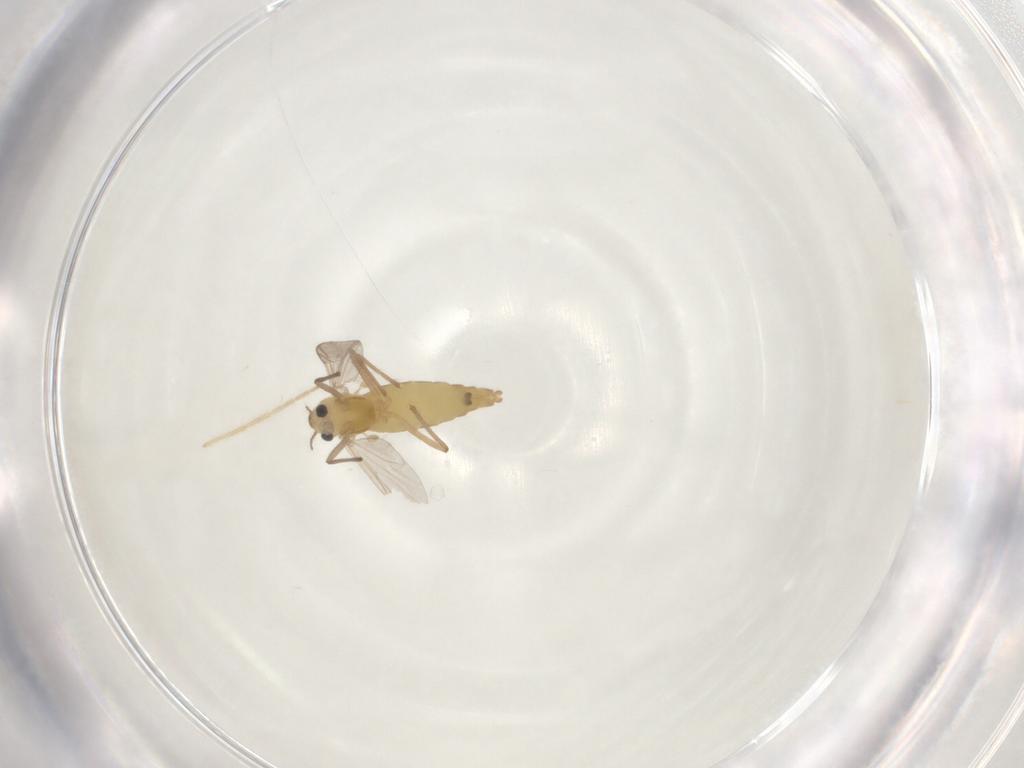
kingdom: Animalia
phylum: Arthropoda
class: Insecta
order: Diptera
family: Chironomidae
